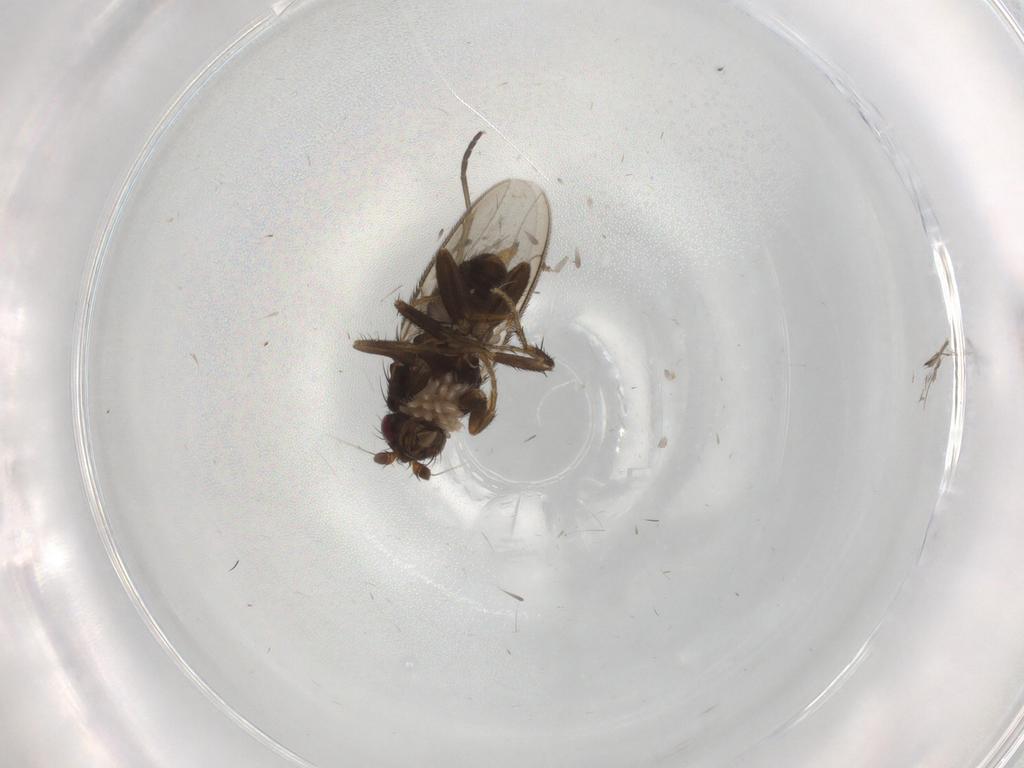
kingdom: Animalia
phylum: Arthropoda
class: Insecta
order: Diptera
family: Sphaeroceridae
